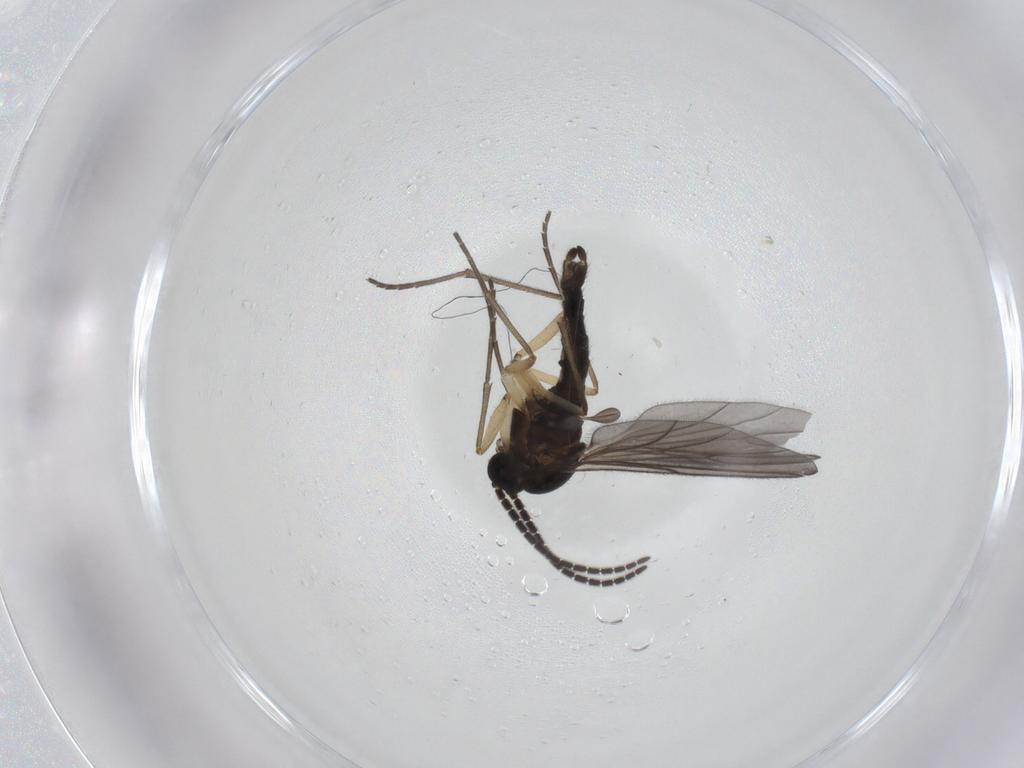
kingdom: Animalia
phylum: Arthropoda
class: Insecta
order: Diptera
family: Sciaridae
